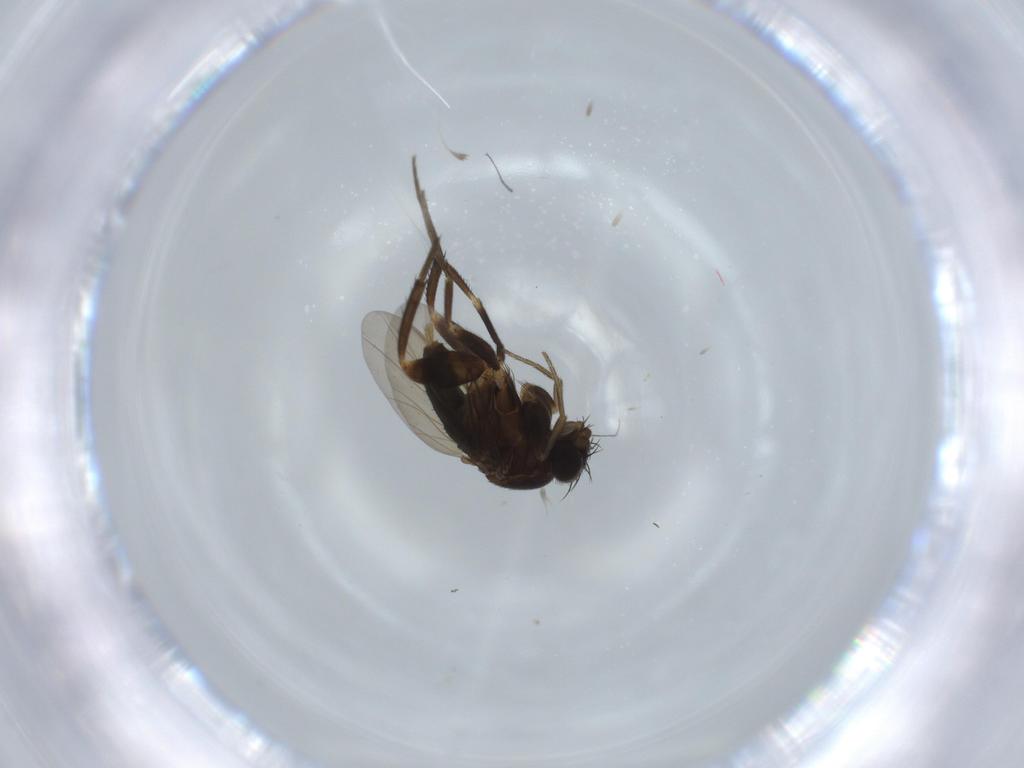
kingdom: Animalia
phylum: Arthropoda
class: Insecta
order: Diptera
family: Phoridae
